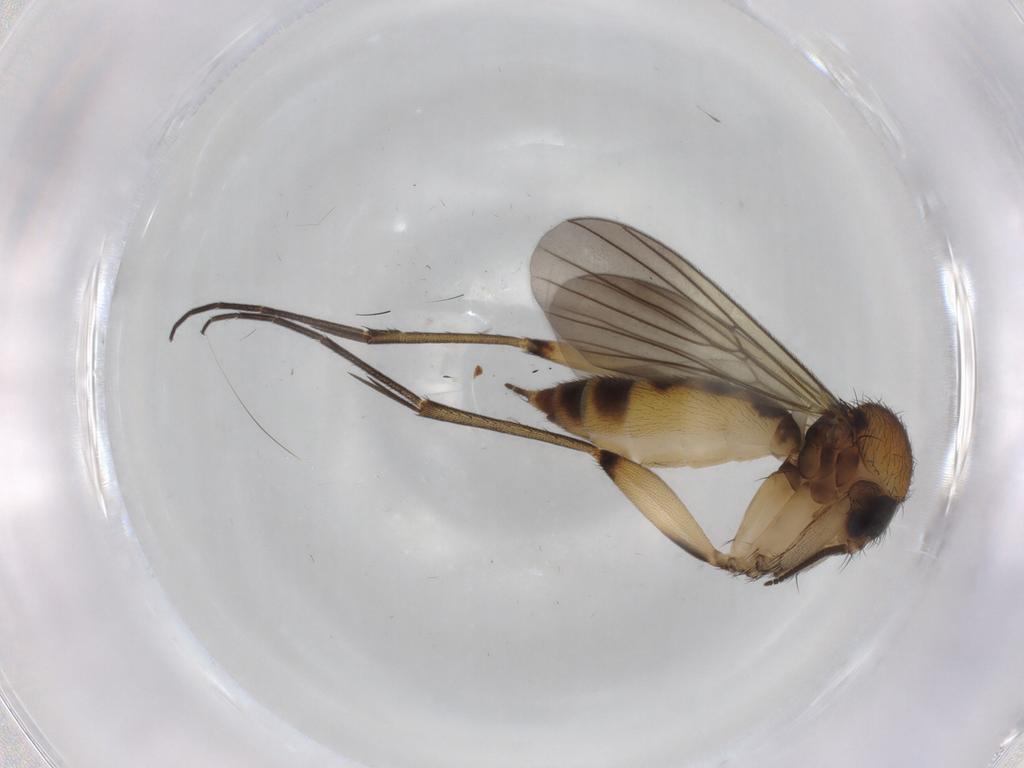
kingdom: Animalia
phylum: Arthropoda
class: Insecta
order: Diptera
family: Mycetophilidae
